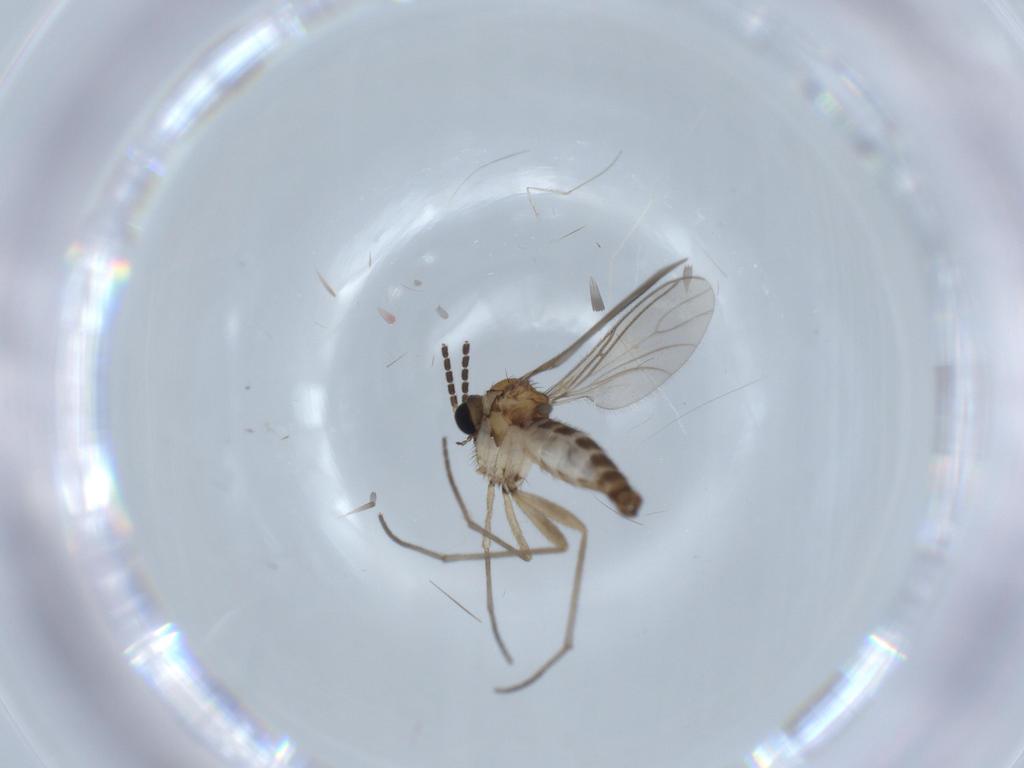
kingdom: Animalia
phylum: Arthropoda
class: Insecta
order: Diptera
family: Sciaridae
